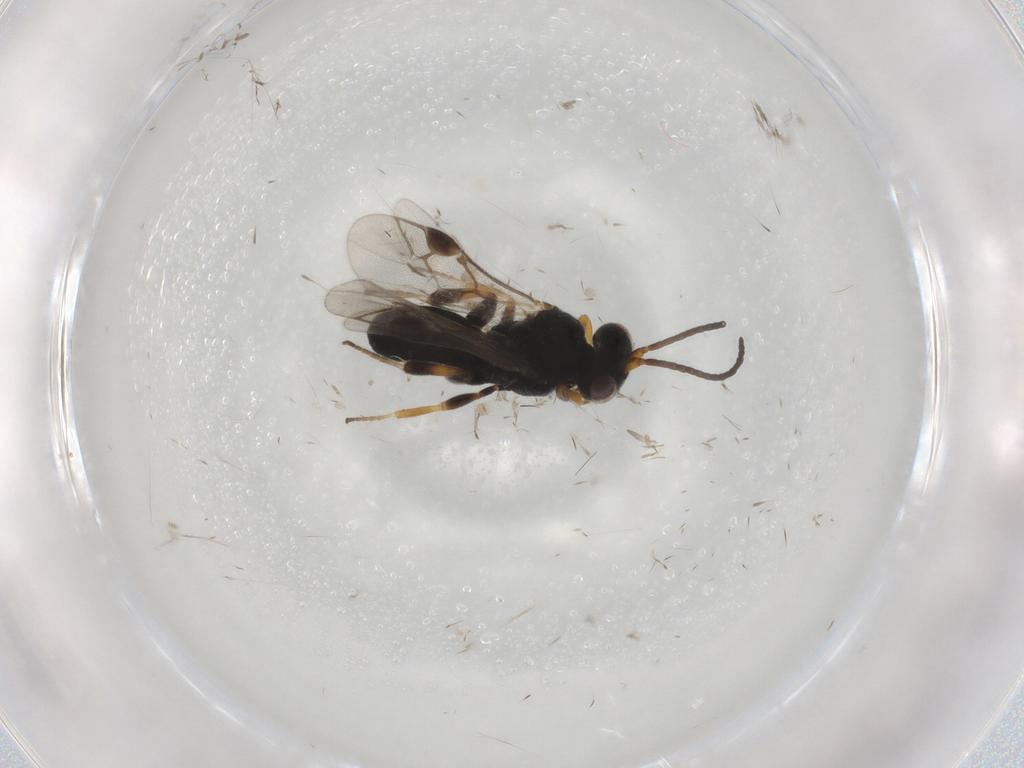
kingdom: Animalia
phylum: Arthropoda
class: Insecta
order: Hymenoptera
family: Braconidae
